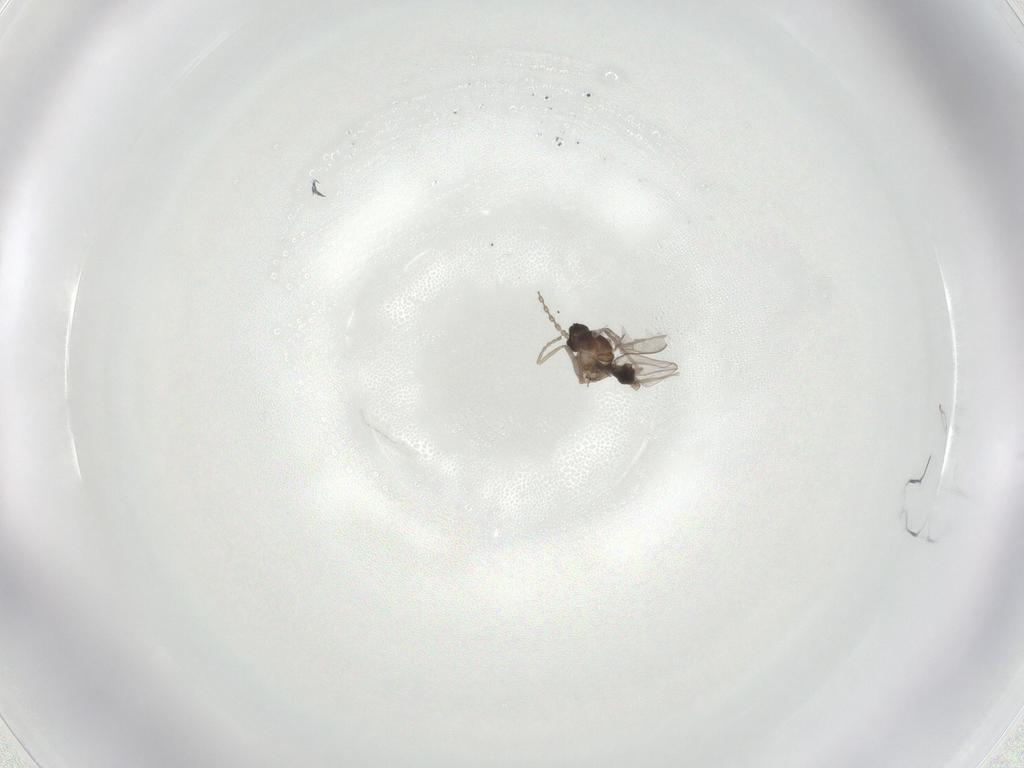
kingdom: Animalia
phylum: Arthropoda
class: Insecta
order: Diptera
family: Cecidomyiidae
